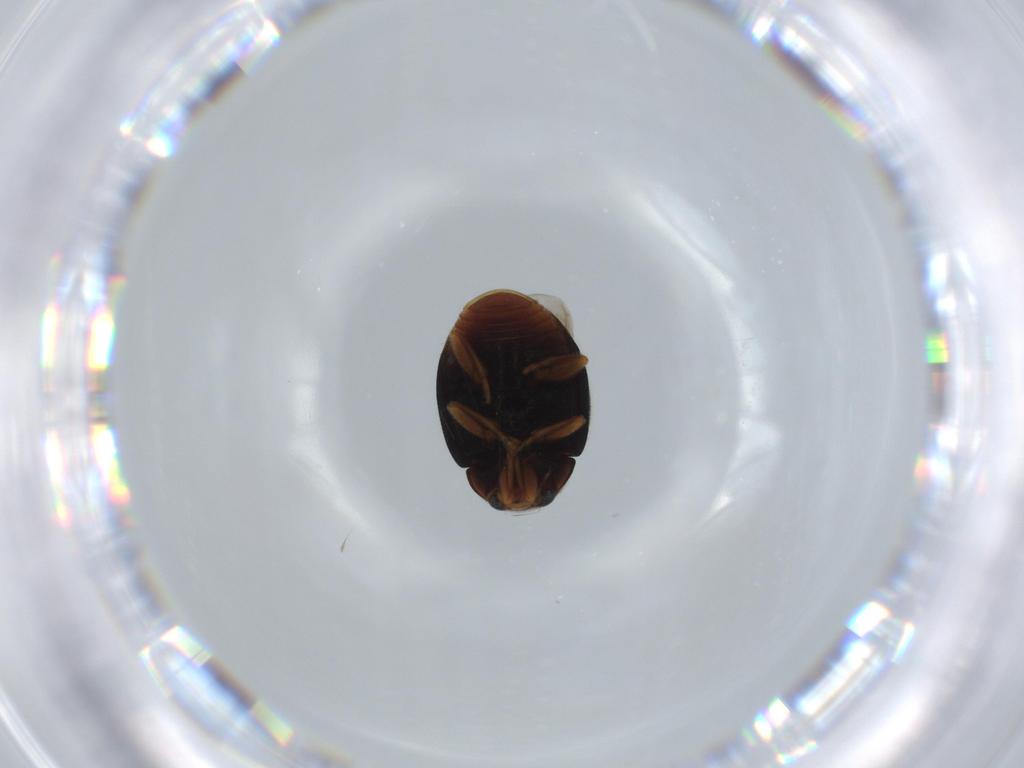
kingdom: Animalia
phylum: Arthropoda
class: Insecta
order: Coleoptera
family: Coccinellidae
